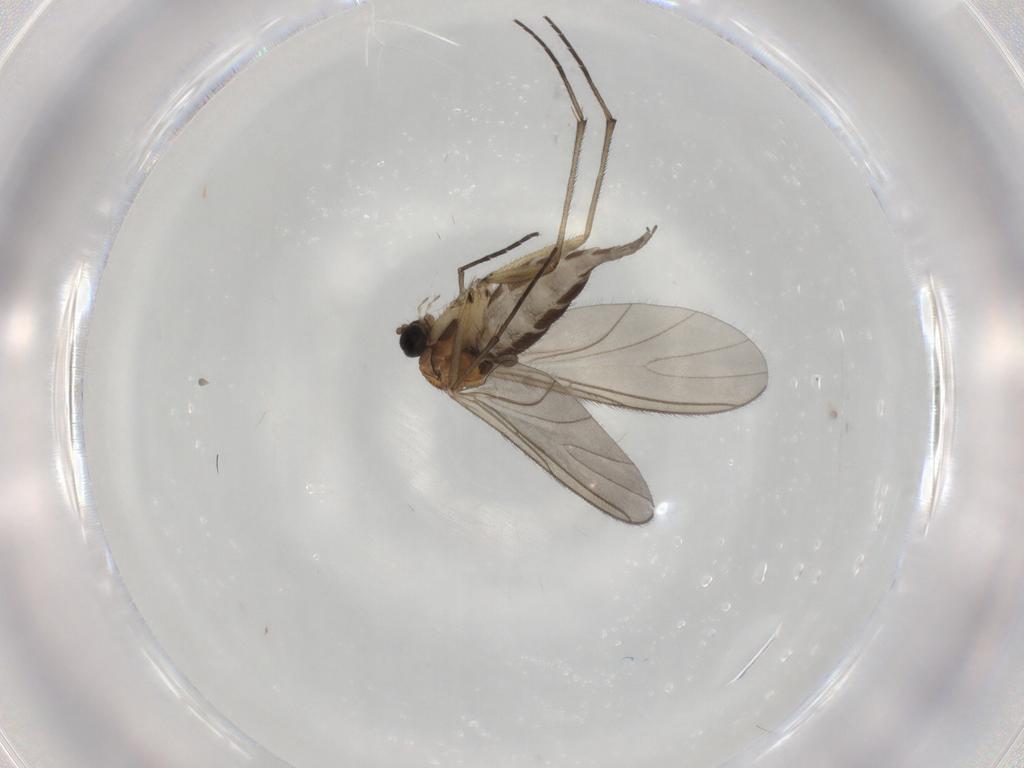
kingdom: Animalia
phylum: Arthropoda
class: Insecta
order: Diptera
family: Sciaridae
